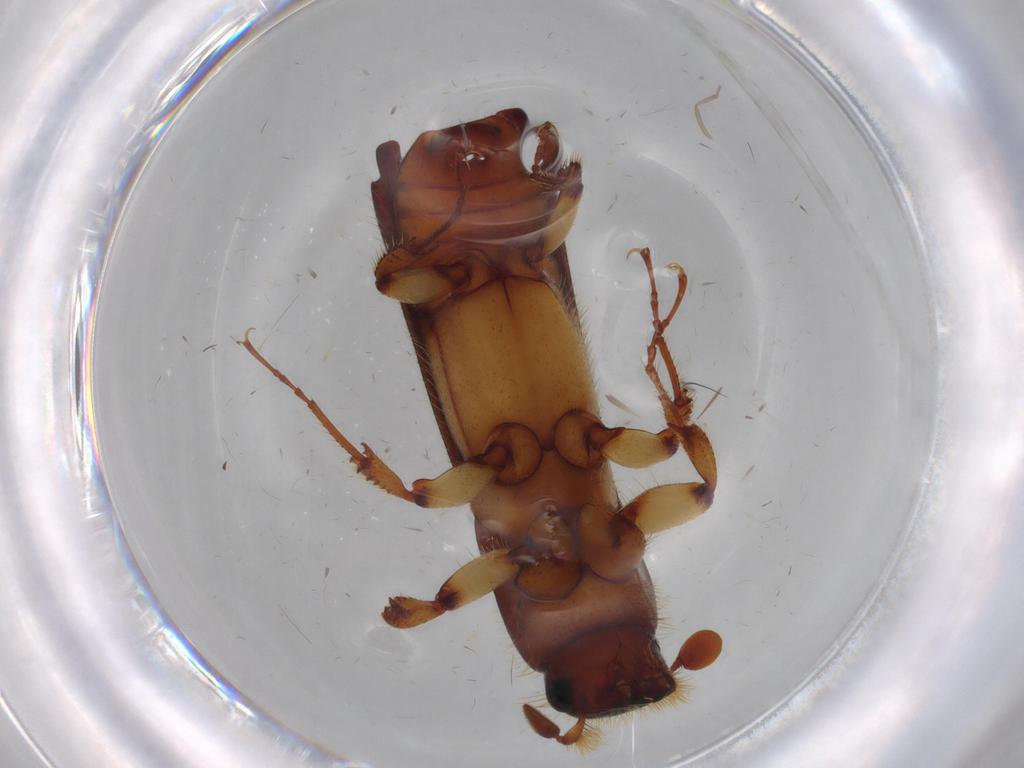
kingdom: Animalia
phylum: Arthropoda
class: Insecta
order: Coleoptera
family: Curculionidae
